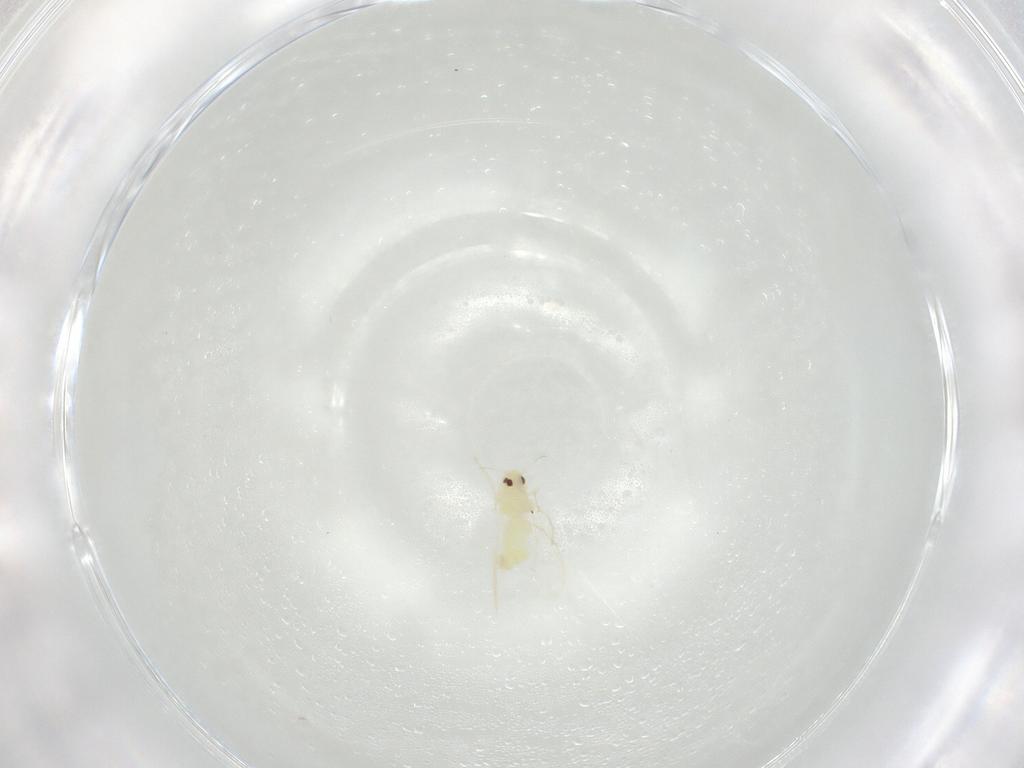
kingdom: Animalia
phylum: Arthropoda
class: Insecta
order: Hemiptera
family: Aleyrodidae
